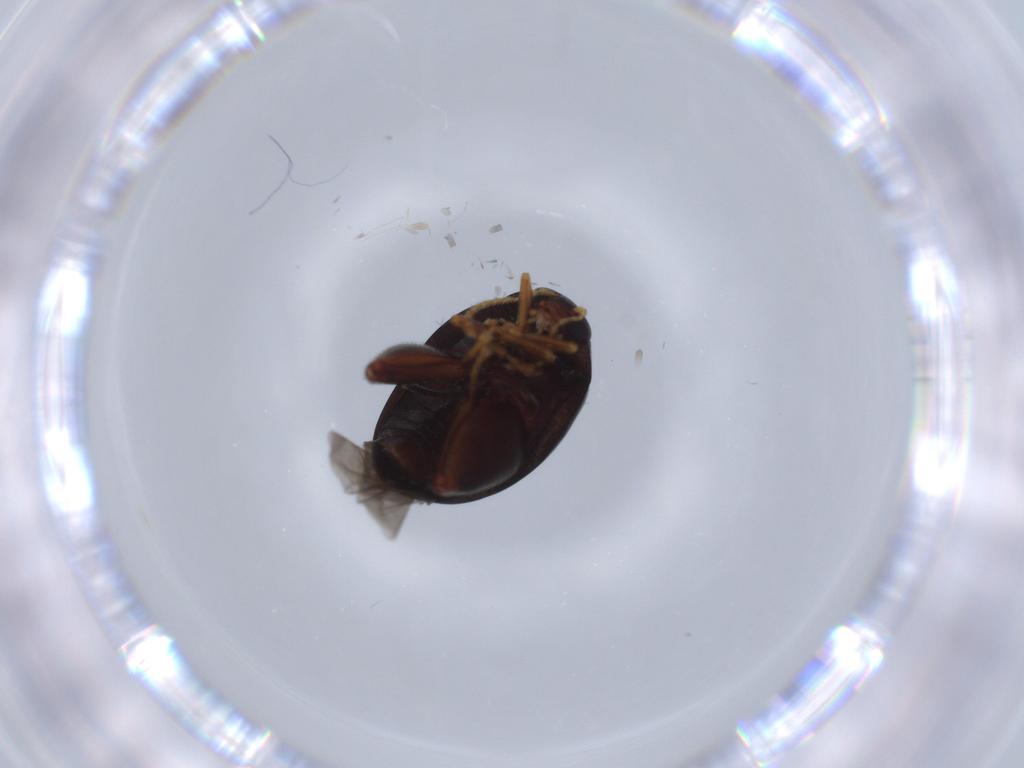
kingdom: Animalia
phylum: Arthropoda
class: Insecta
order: Coleoptera
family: Chrysomelidae
